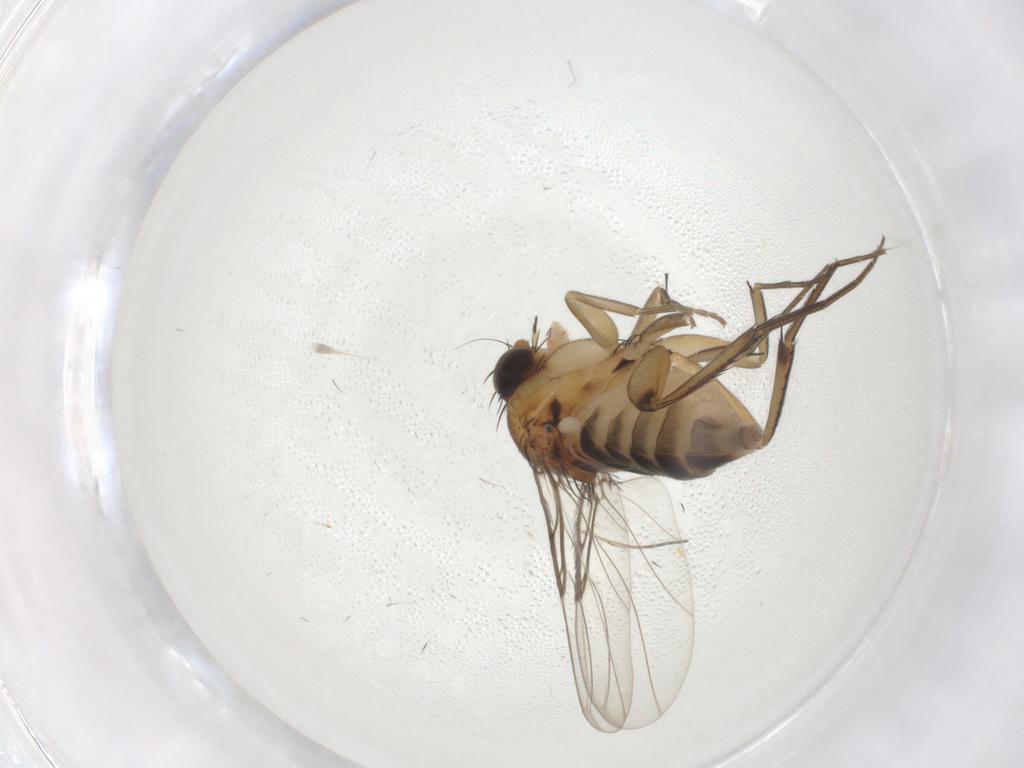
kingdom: Animalia
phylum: Arthropoda
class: Insecta
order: Diptera
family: Phoridae
